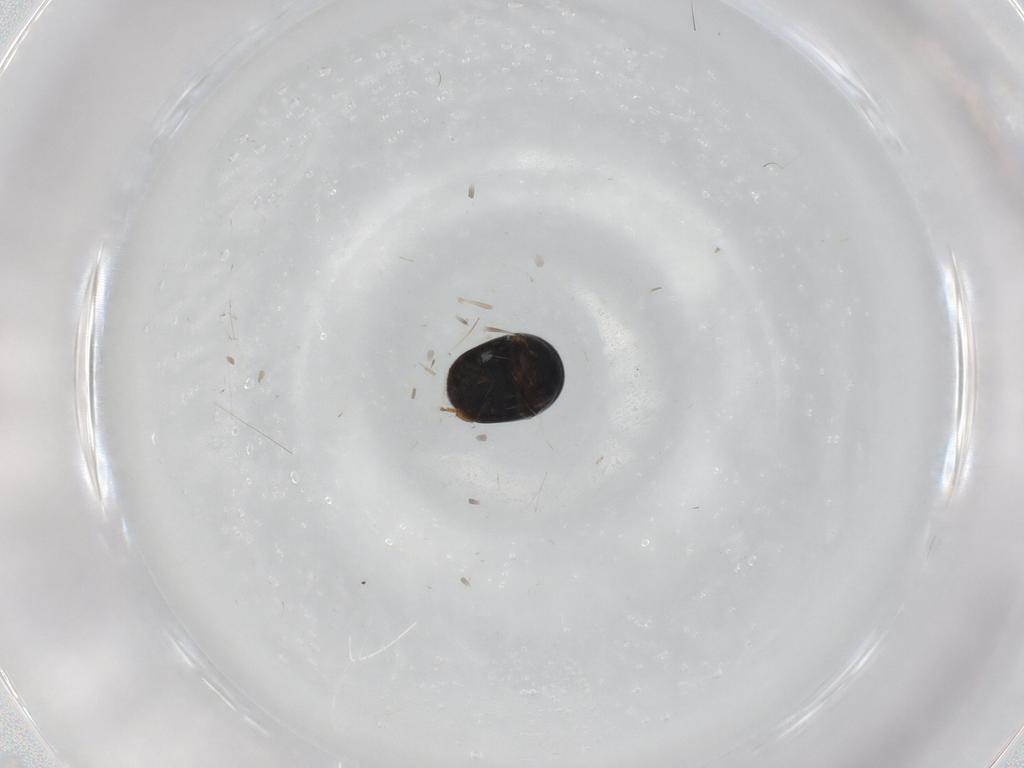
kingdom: Animalia
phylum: Arthropoda
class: Insecta
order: Coleoptera
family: Cybocephalidae
